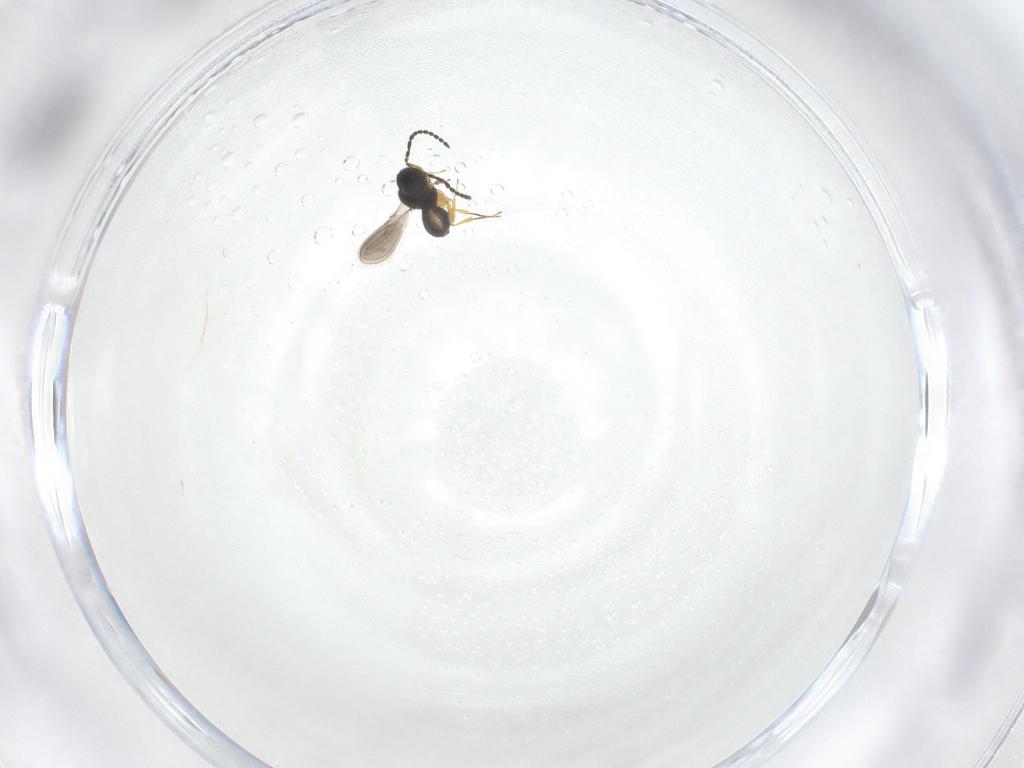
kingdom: Animalia
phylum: Arthropoda
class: Insecta
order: Hymenoptera
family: Scelionidae
